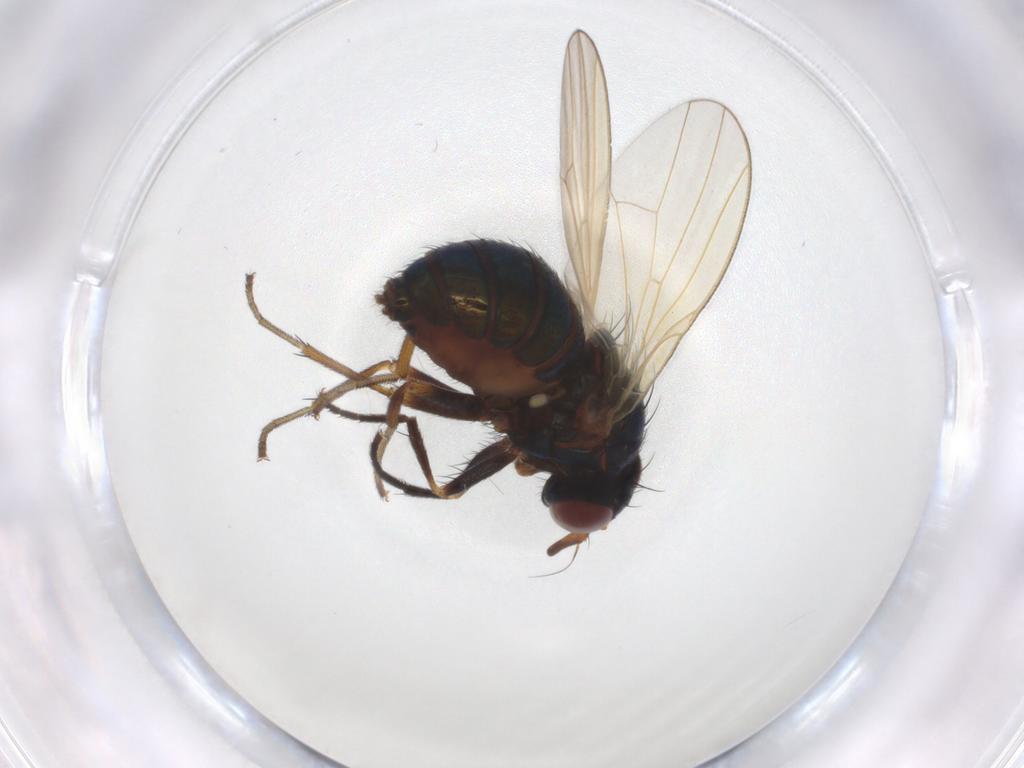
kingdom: Animalia
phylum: Arthropoda
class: Insecta
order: Diptera
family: Lauxaniidae
